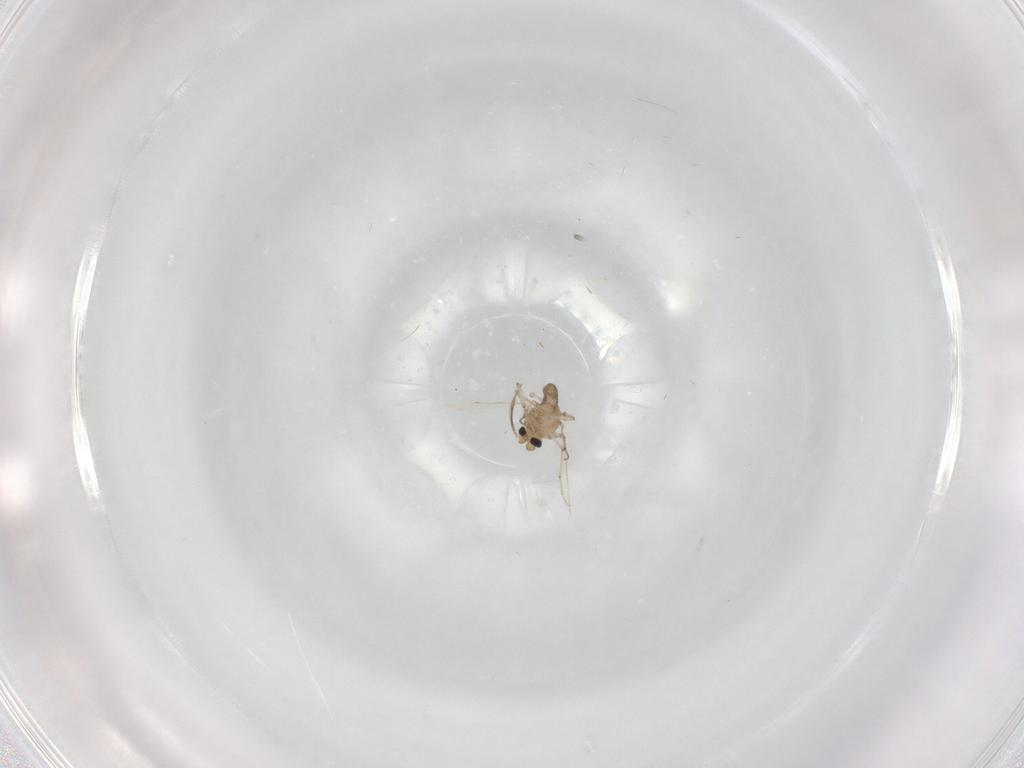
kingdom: Animalia
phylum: Arthropoda
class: Insecta
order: Diptera
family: Ceratopogonidae
